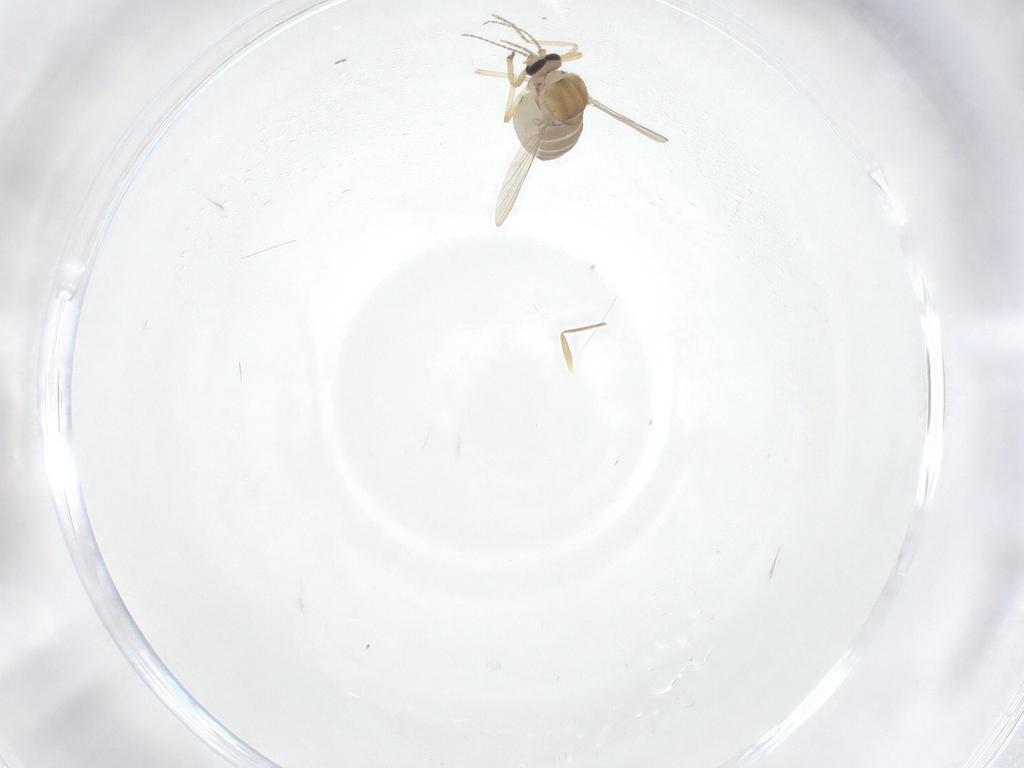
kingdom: Animalia
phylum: Arthropoda
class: Insecta
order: Diptera
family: Ceratopogonidae
